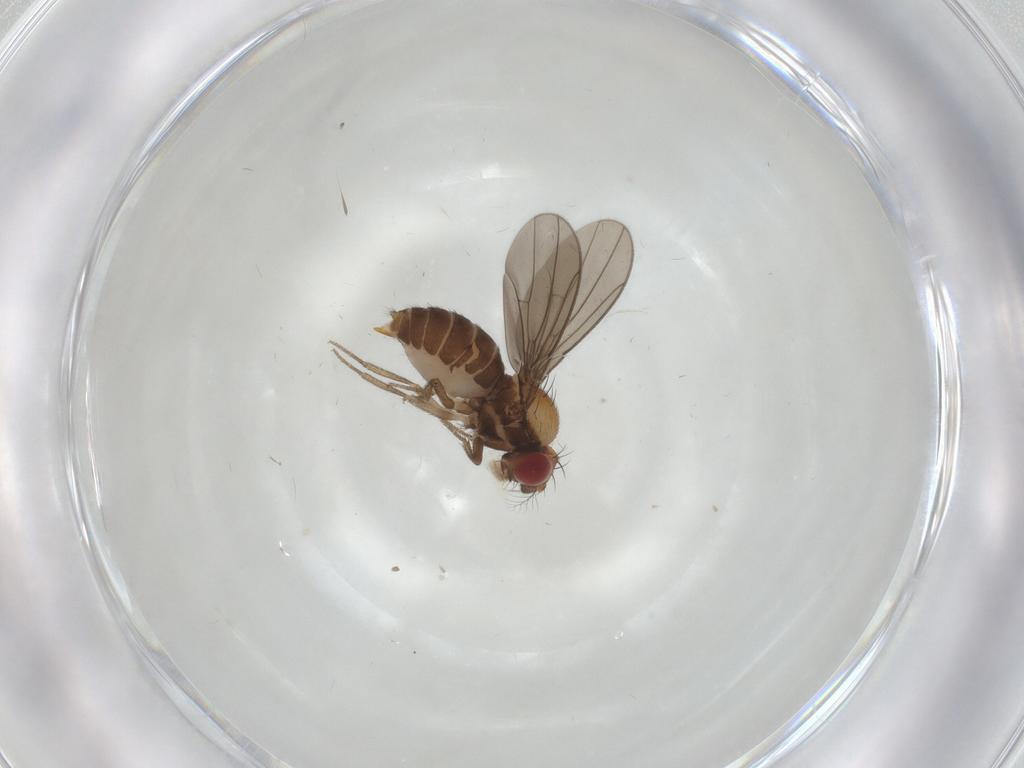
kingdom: Animalia
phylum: Arthropoda
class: Insecta
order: Diptera
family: Drosophilidae
